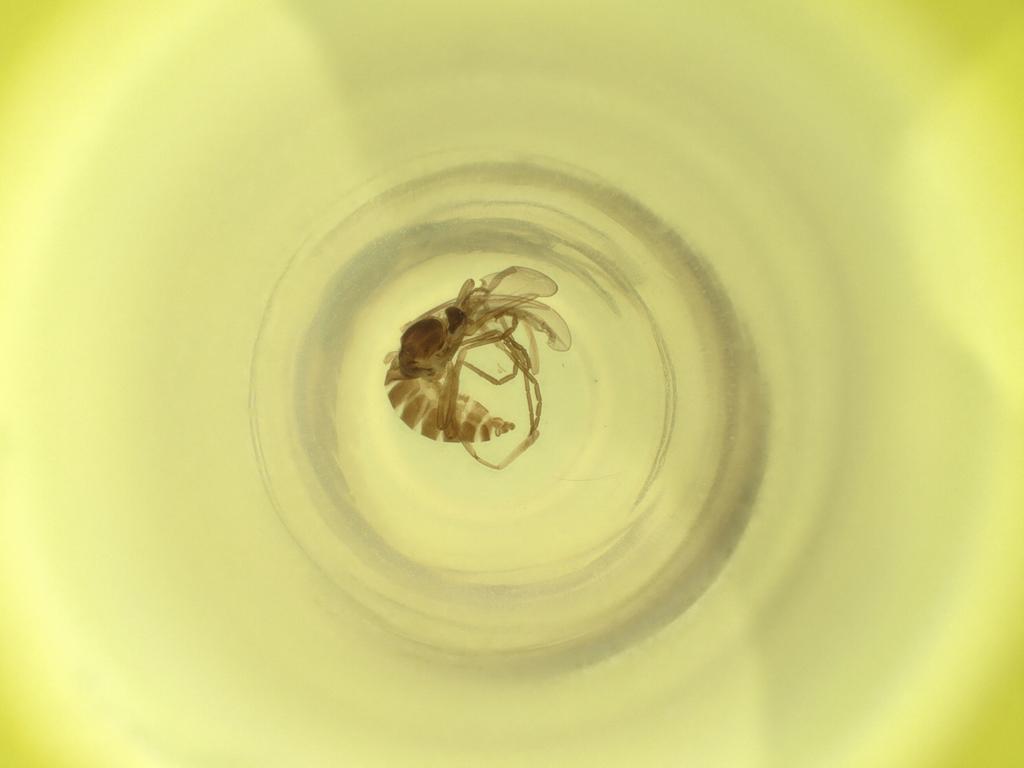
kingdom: Animalia
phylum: Arthropoda
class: Insecta
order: Diptera
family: Cecidomyiidae
